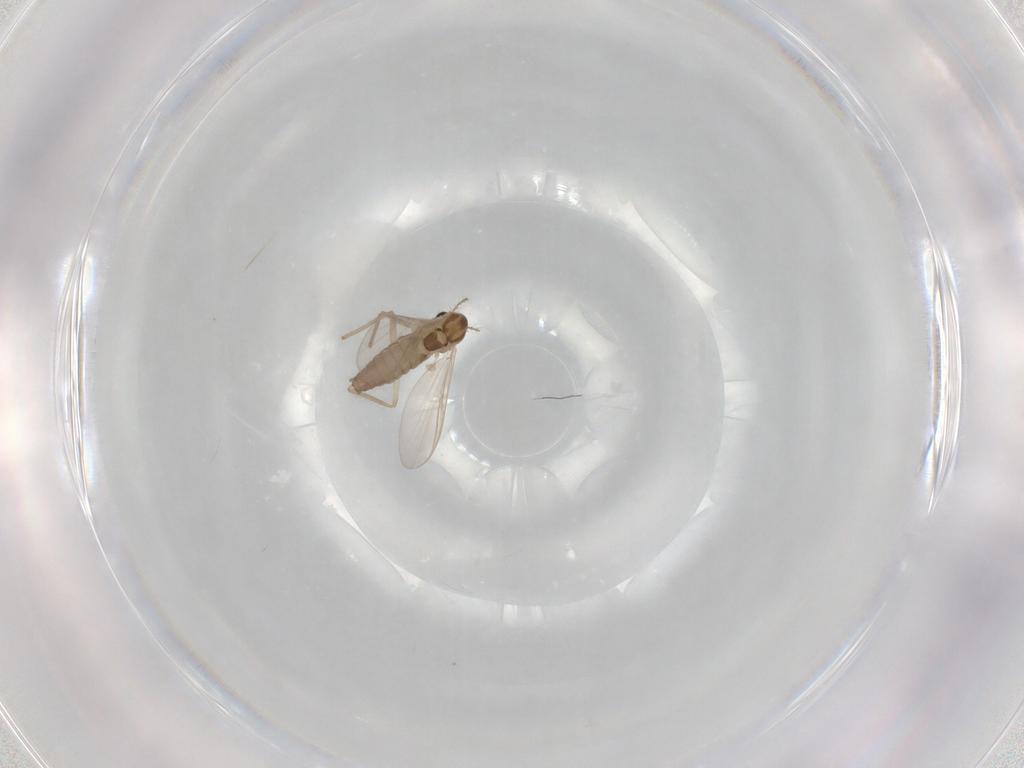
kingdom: Animalia
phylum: Arthropoda
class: Insecta
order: Diptera
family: Chironomidae
